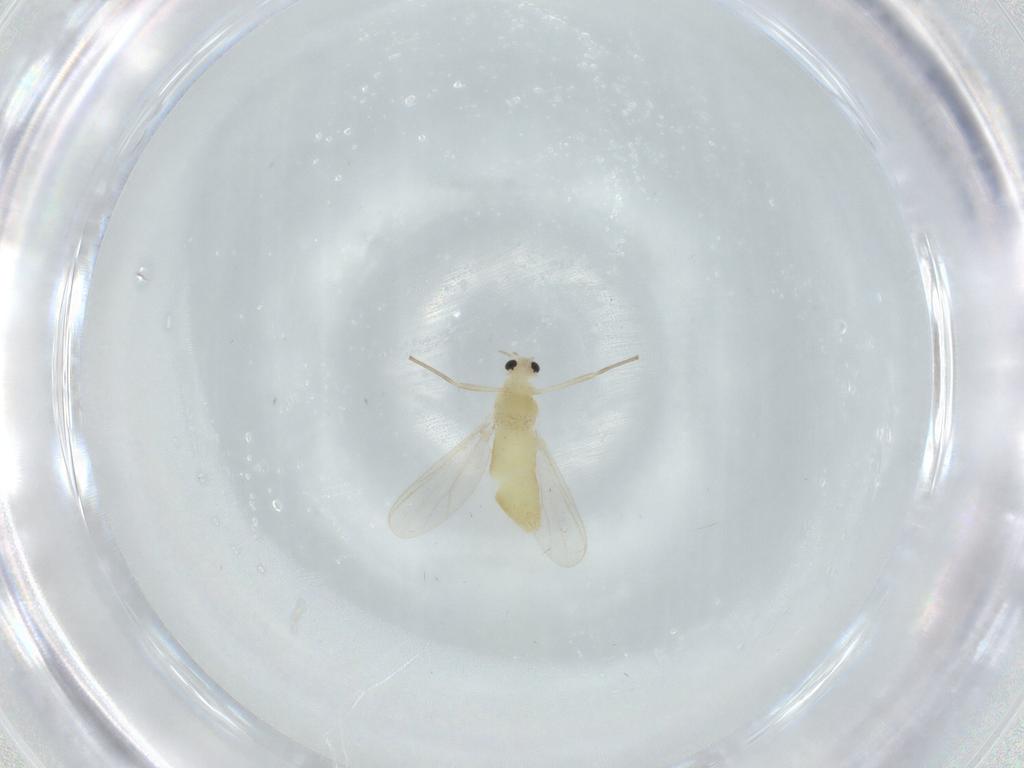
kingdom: Animalia
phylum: Arthropoda
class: Insecta
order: Diptera
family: Chironomidae
